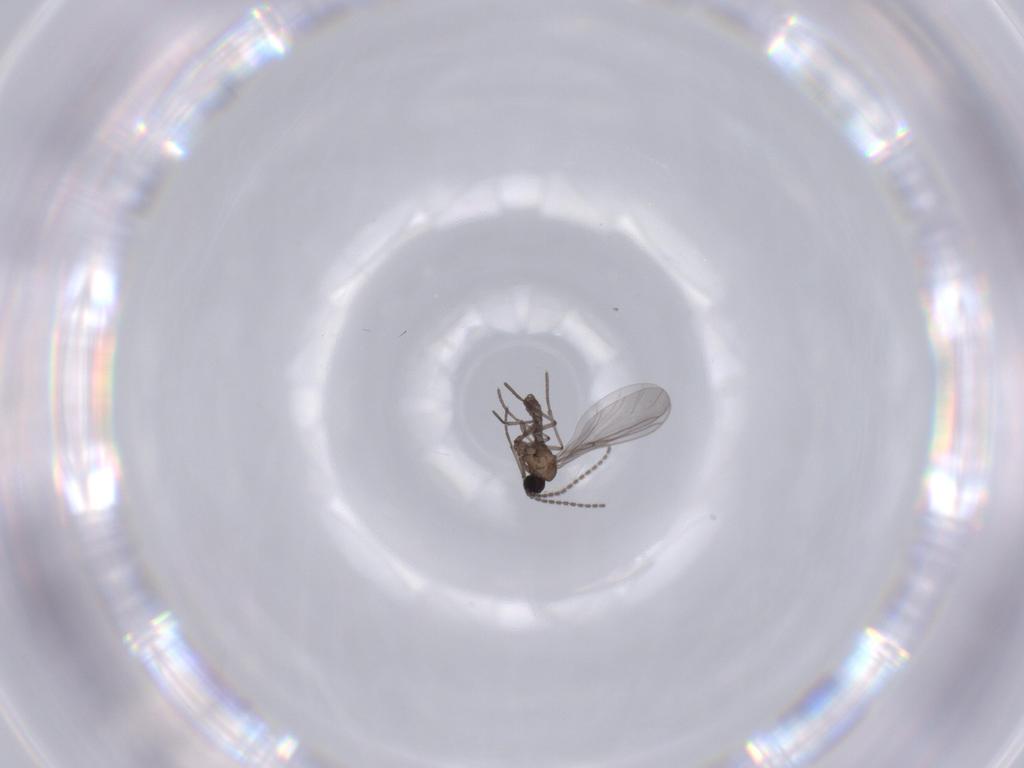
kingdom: Animalia
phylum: Arthropoda
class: Insecta
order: Diptera
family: Sciaridae
